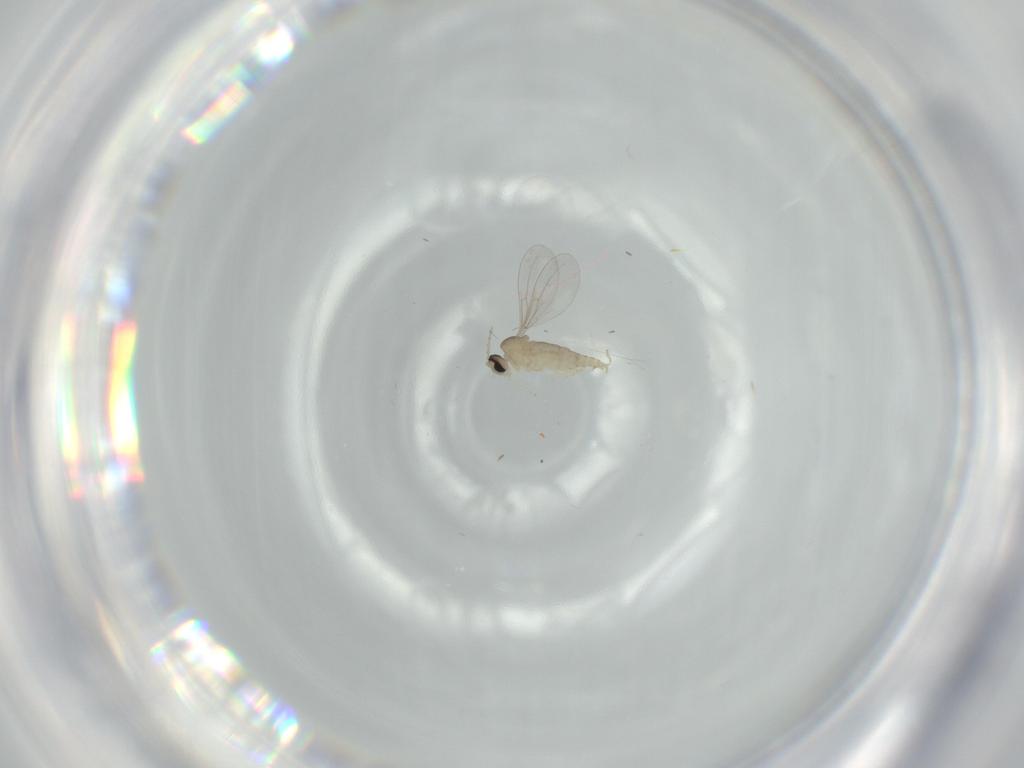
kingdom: Animalia
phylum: Arthropoda
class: Insecta
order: Diptera
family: Cecidomyiidae
